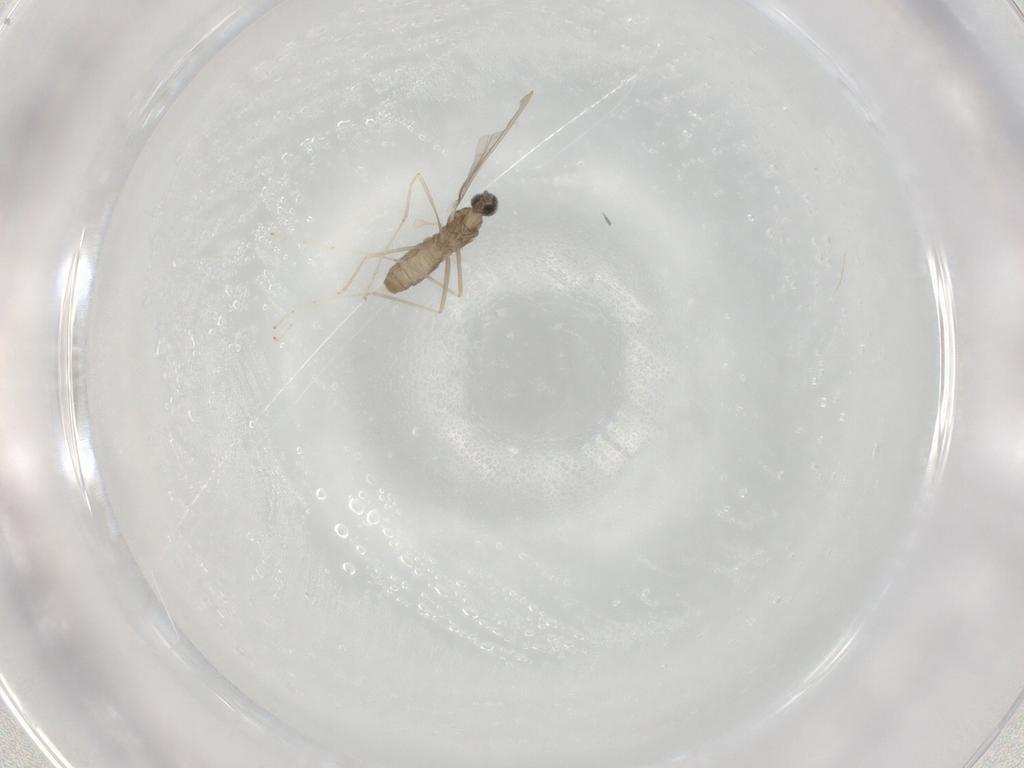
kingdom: Animalia
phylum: Arthropoda
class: Insecta
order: Diptera
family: Cecidomyiidae
